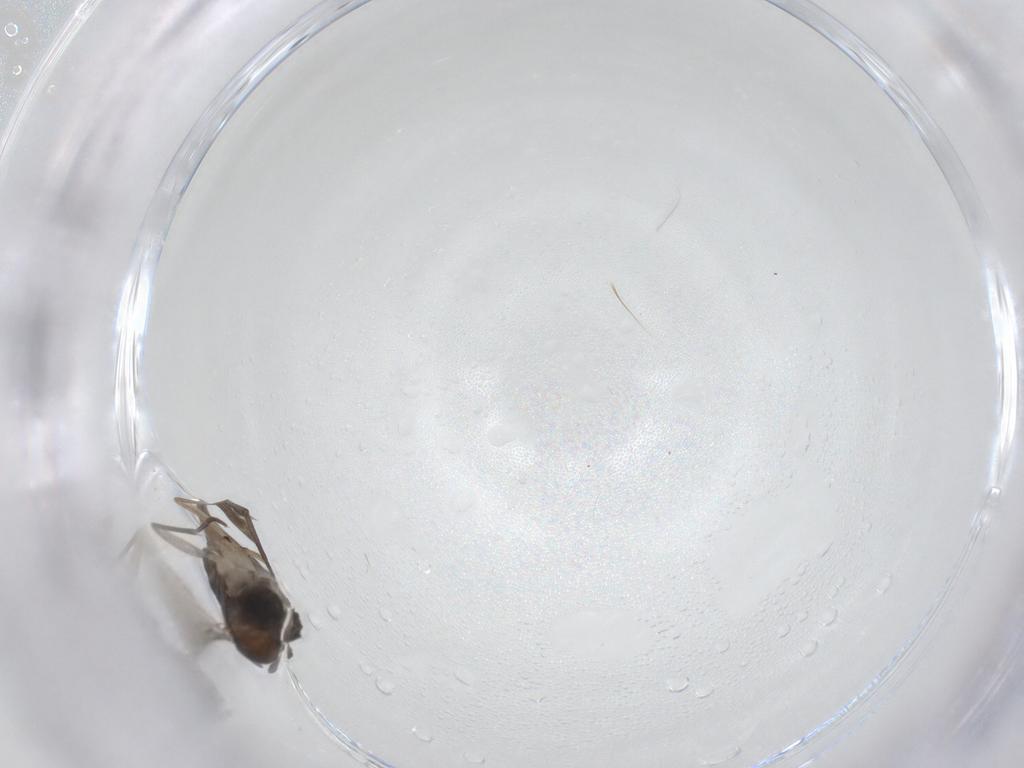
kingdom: Animalia
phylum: Arthropoda
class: Insecta
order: Diptera
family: Sciaridae
